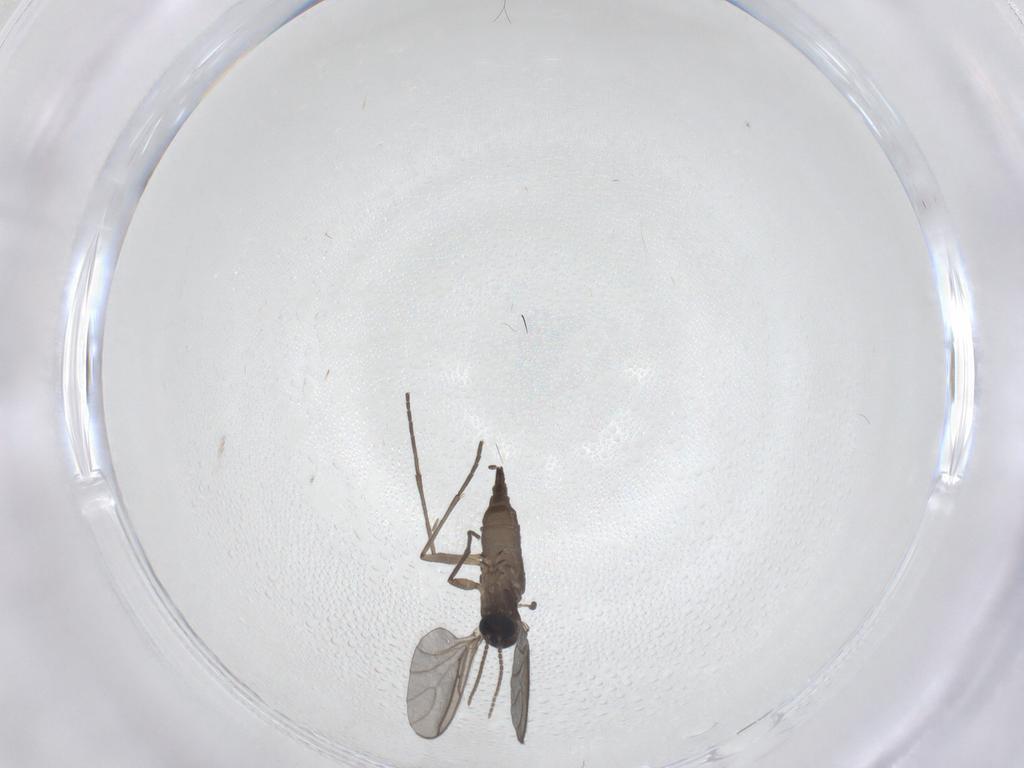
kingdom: Animalia
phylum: Arthropoda
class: Insecta
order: Diptera
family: Sciaridae
